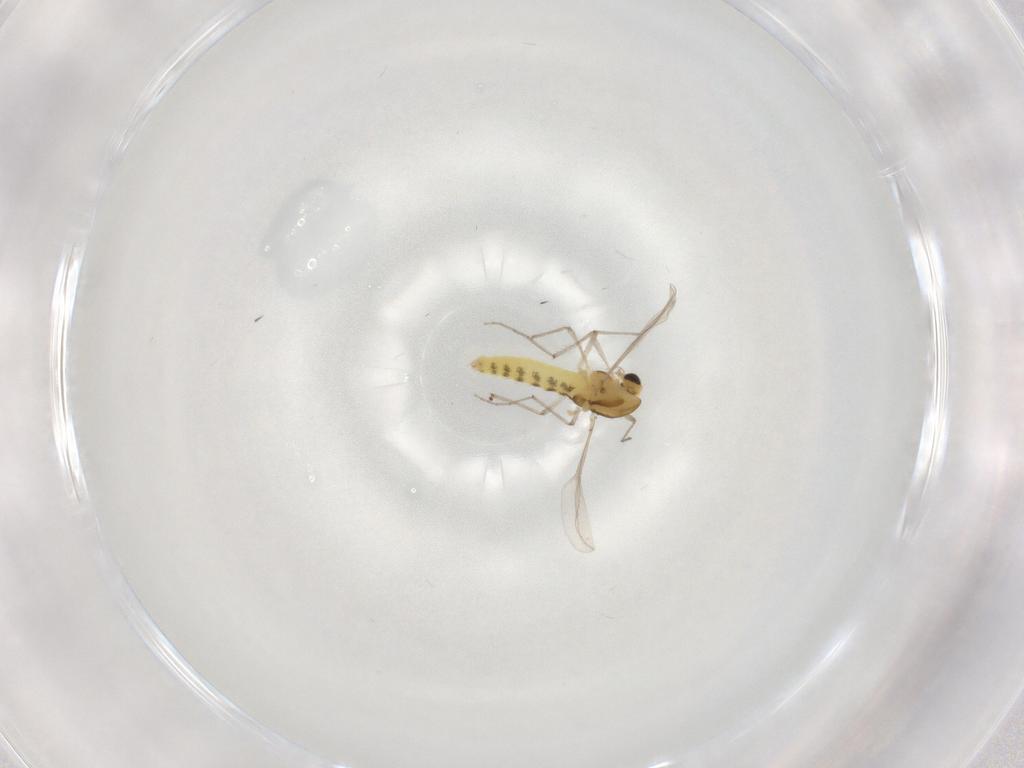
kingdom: Animalia
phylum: Arthropoda
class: Insecta
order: Diptera
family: Chironomidae
